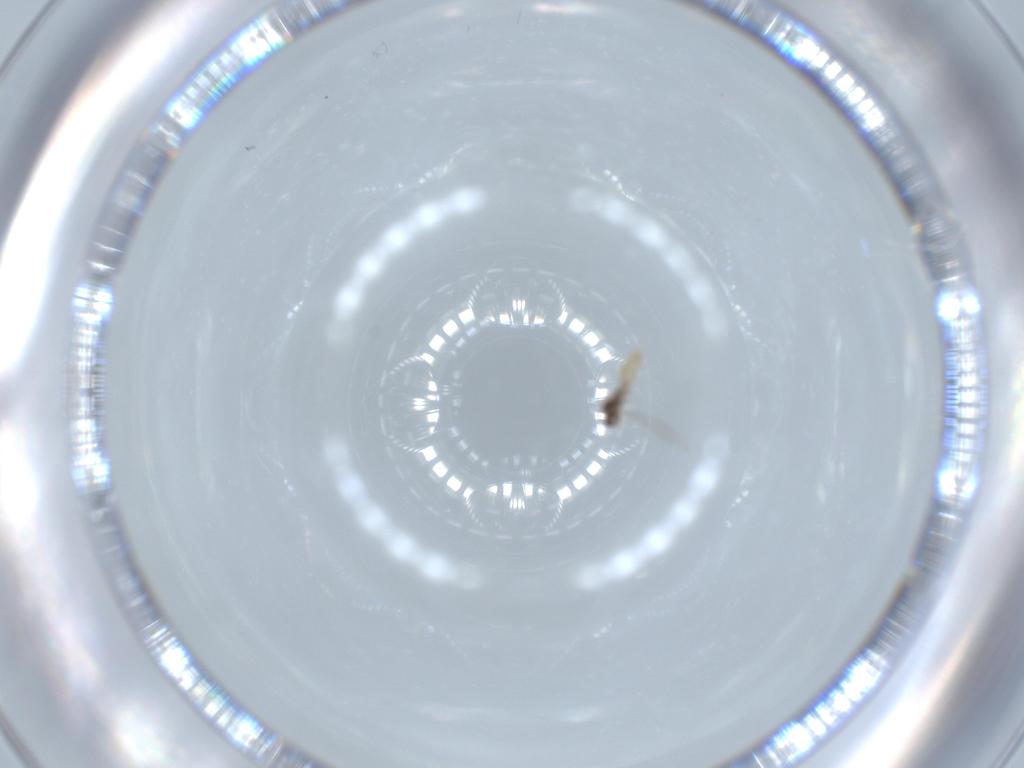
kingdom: Animalia
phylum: Arthropoda
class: Insecta
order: Diptera
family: Cecidomyiidae
